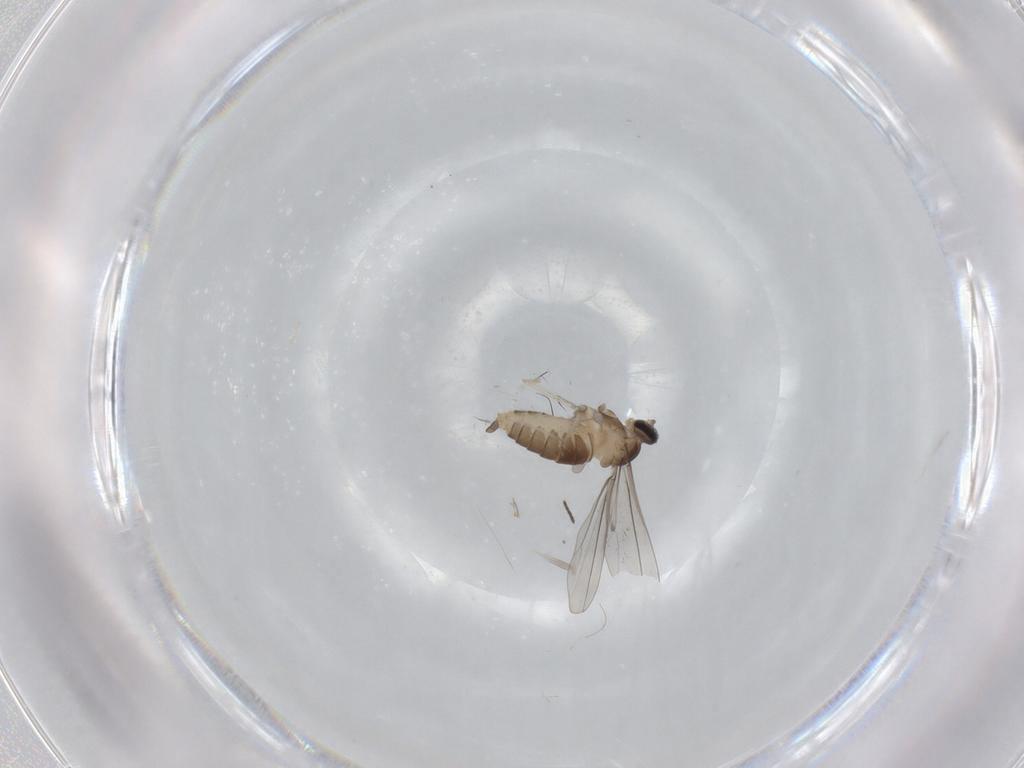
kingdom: Animalia
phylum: Arthropoda
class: Insecta
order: Diptera
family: Cecidomyiidae
